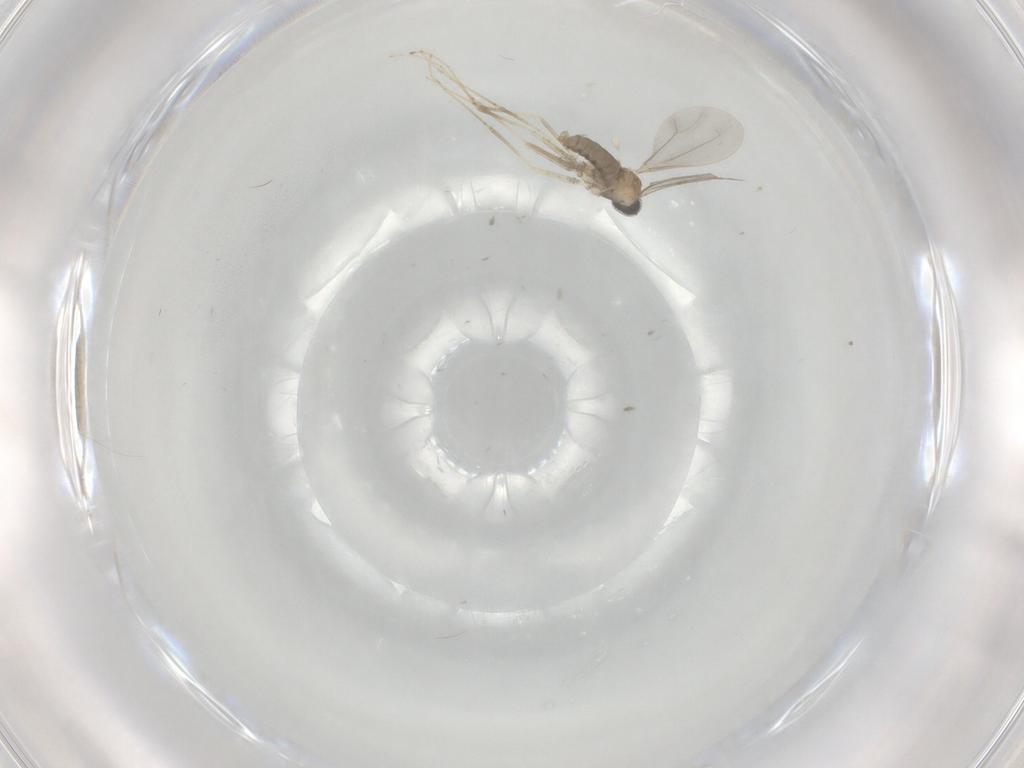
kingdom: Animalia
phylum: Arthropoda
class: Insecta
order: Diptera
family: Cecidomyiidae
